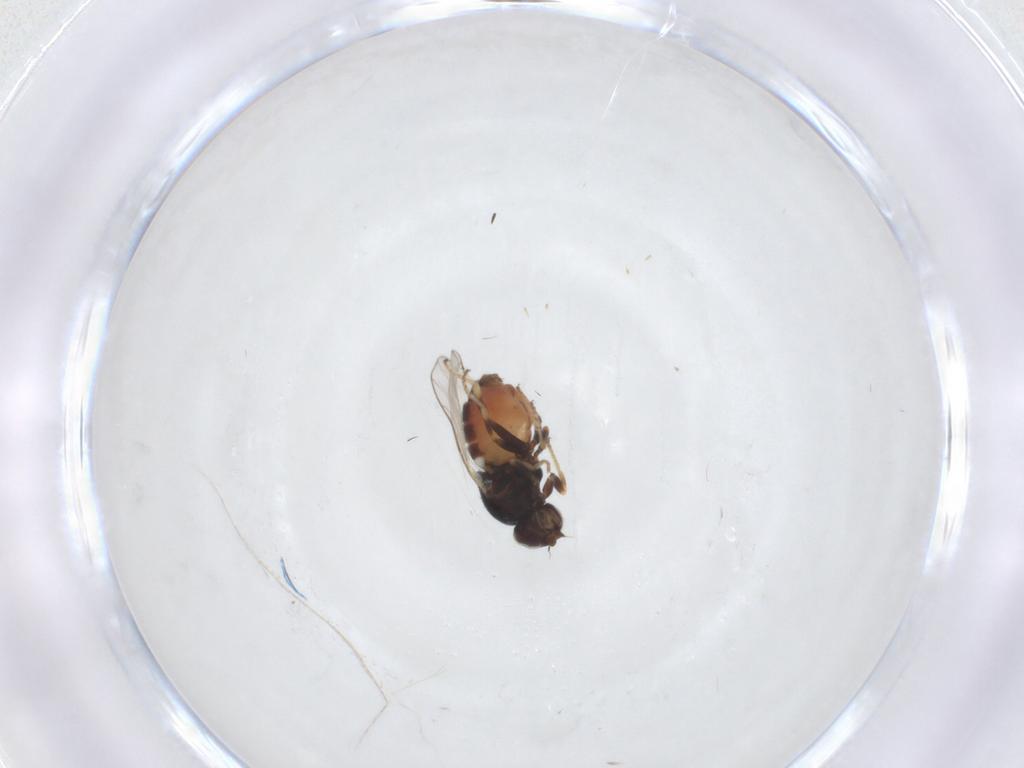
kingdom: Animalia
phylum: Arthropoda
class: Insecta
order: Diptera
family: Chloropidae
